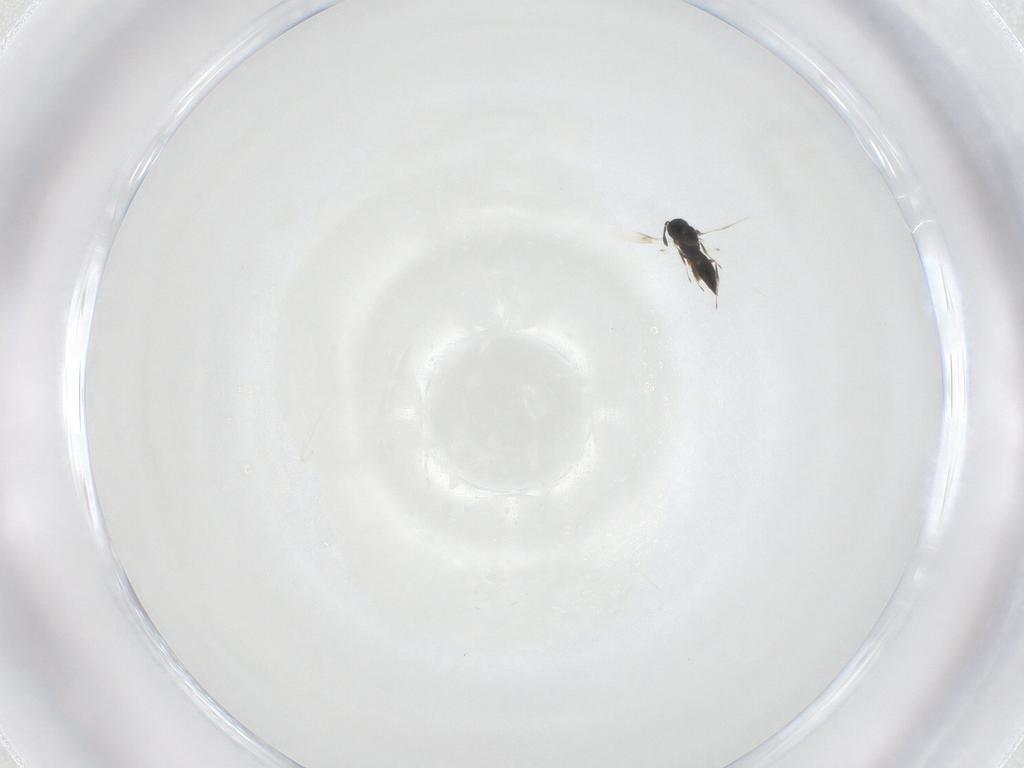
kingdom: Animalia
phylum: Arthropoda
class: Insecta
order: Hymenoptera
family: Scelionidae
